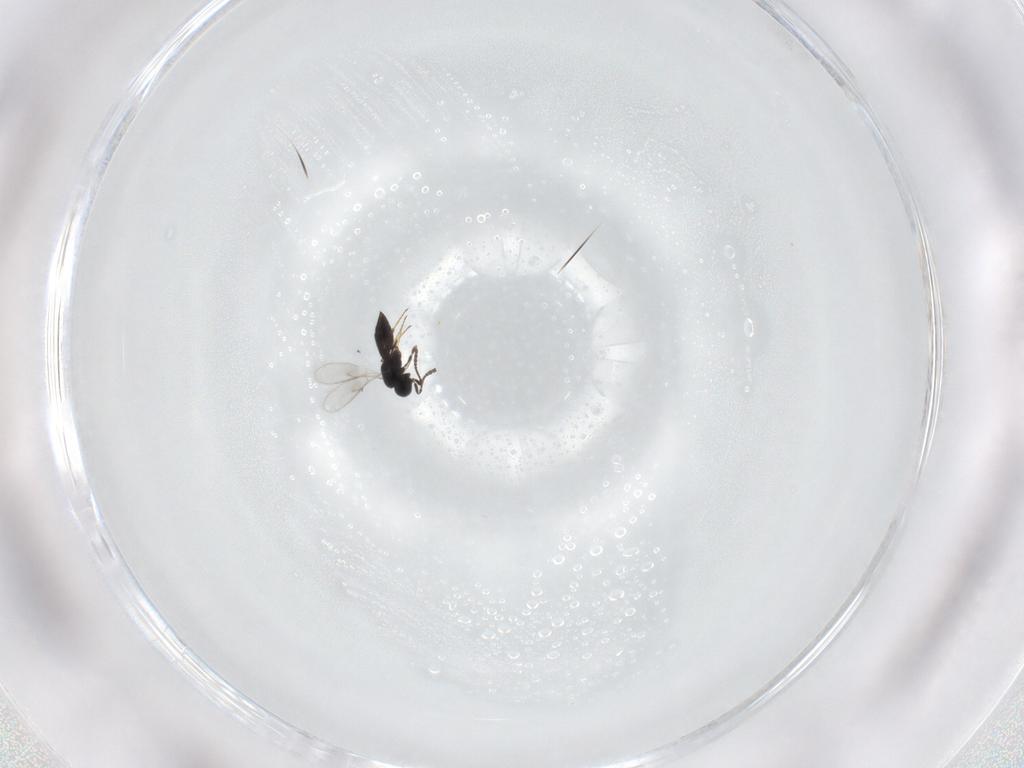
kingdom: Animalia
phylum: Arthropoda
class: Insecta
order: Hymenoptera
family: Scelionidae
